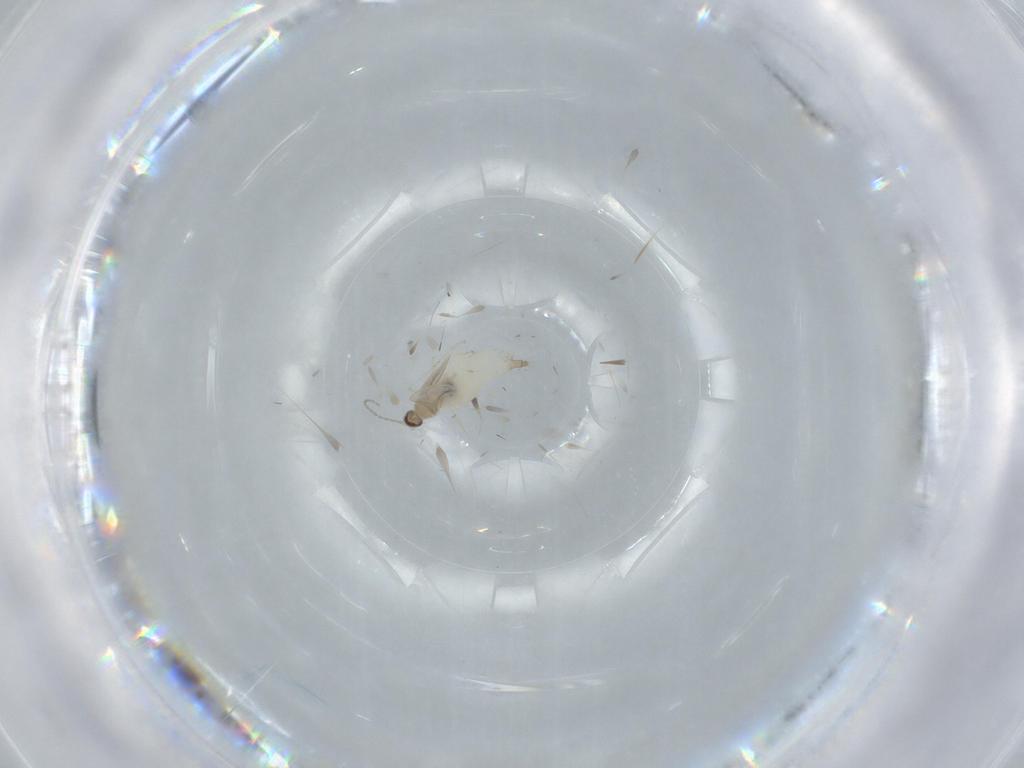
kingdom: Animalia
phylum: Arthropoda
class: Insecta
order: Diptera
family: Cecidomyiidae
